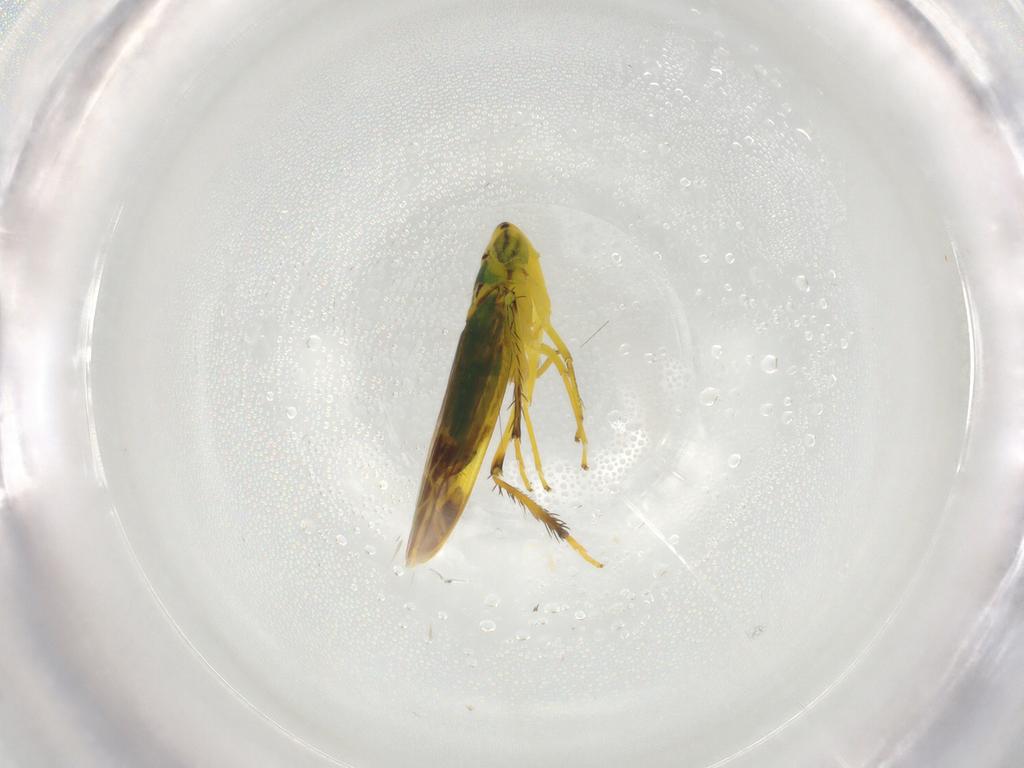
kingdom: Animalia
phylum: Arthropoda
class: Insecta
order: Hemiptera
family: Cicadellidae
